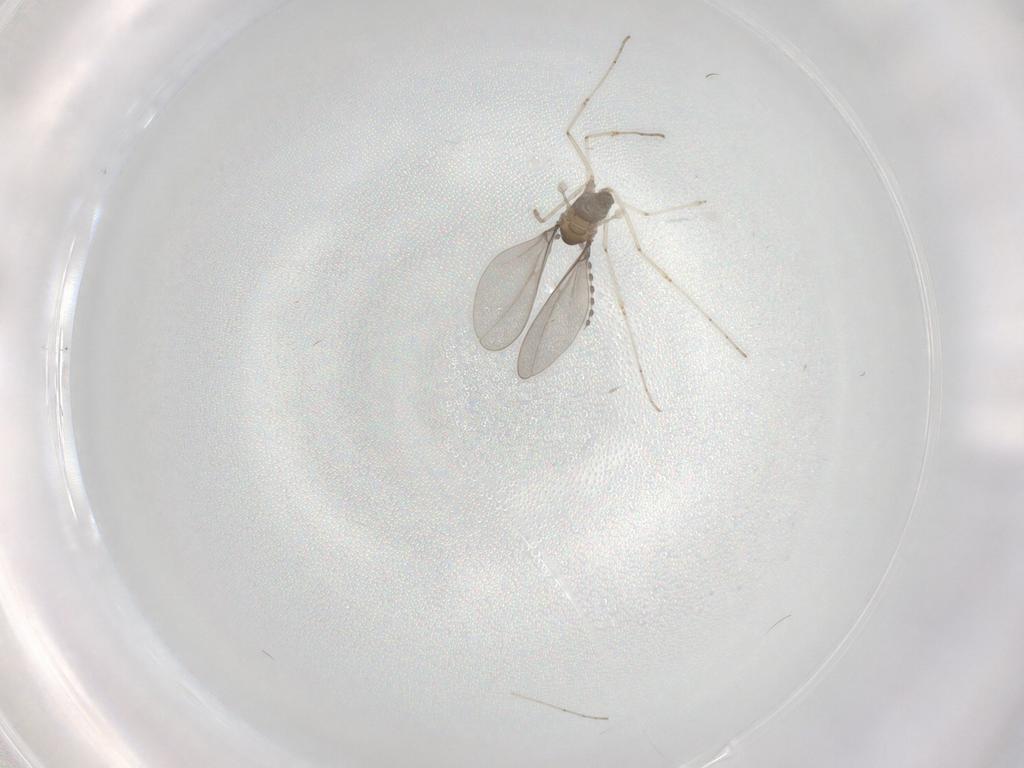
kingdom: Animalia
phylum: Arthropoda
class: Insecta
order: Diptera
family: Cecidomyiidae
